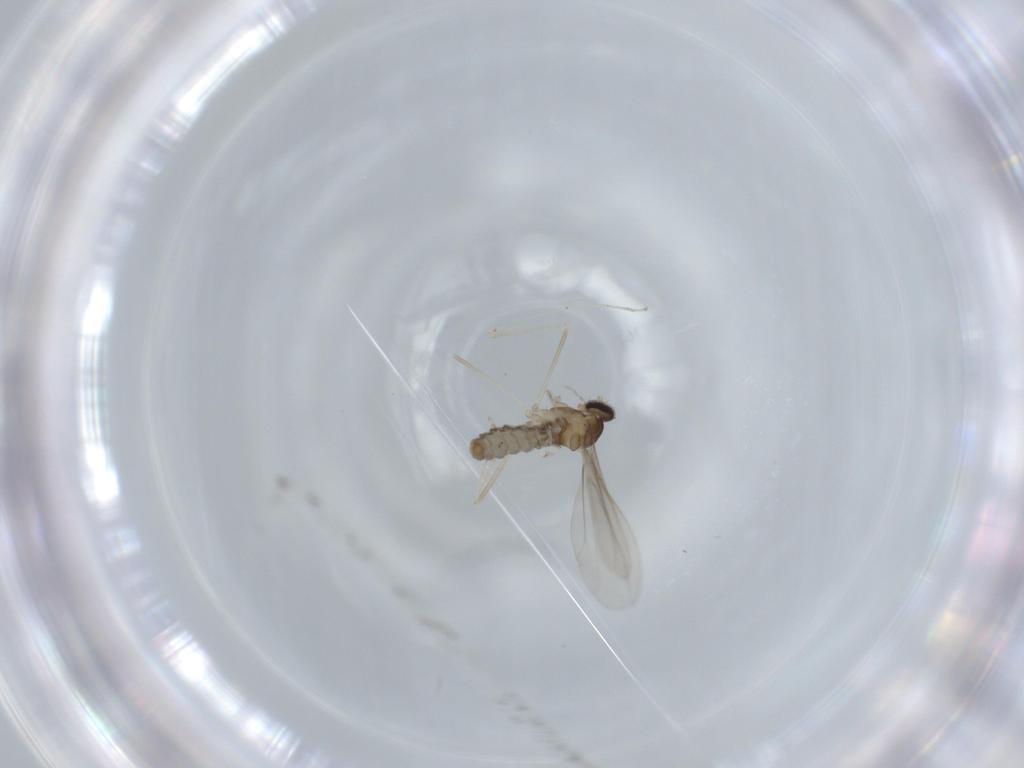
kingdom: Animalia
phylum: Arthropoda
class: Insecta
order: Diptera
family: Cecidomyiidae
